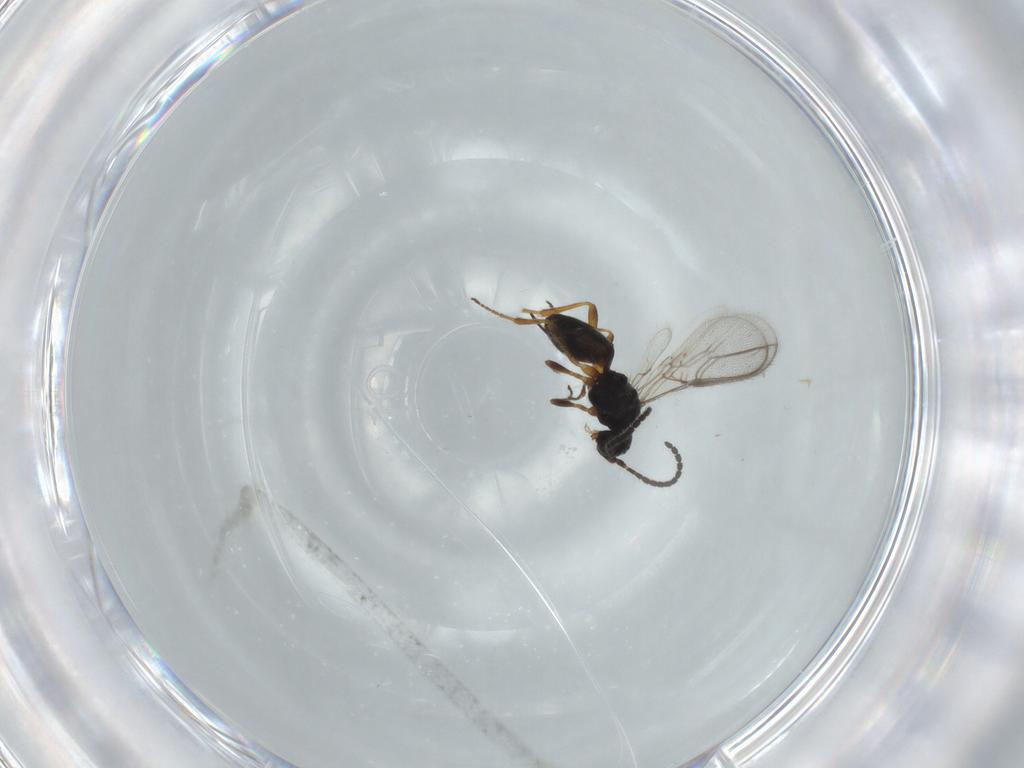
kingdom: Animalia
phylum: Arthropoda
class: Insecta
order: Hymenoptera
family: Braconidae
